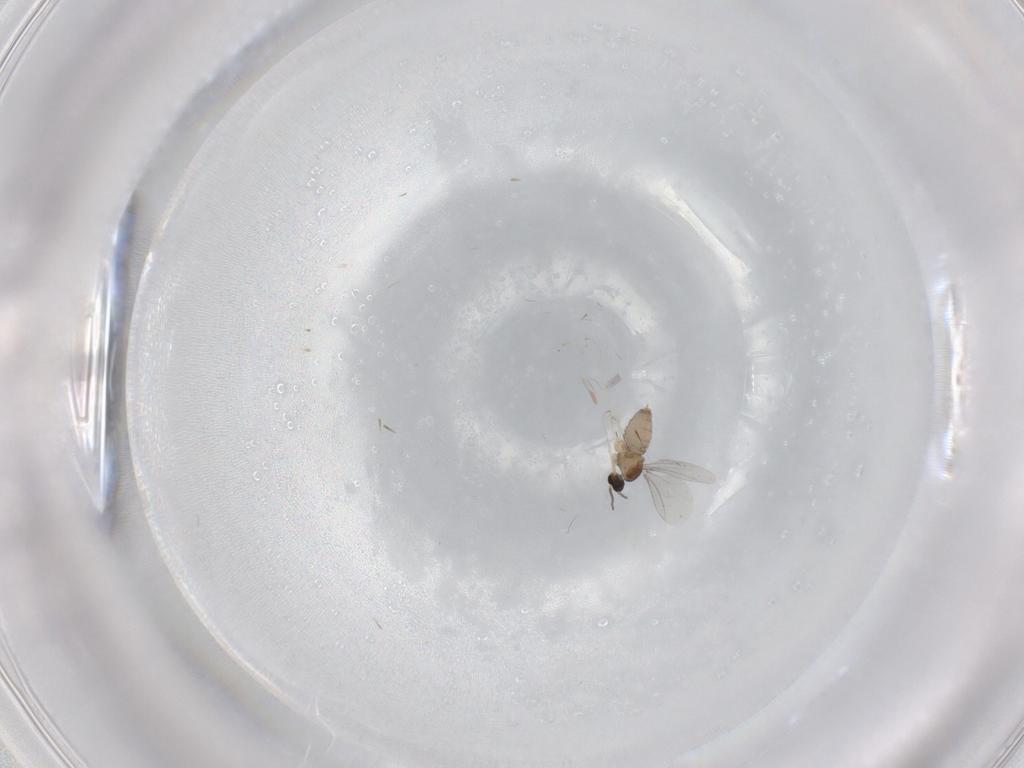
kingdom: Animalia
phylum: Arthropoda
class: Insecta
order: Diptera
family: Cecidomyiidae
